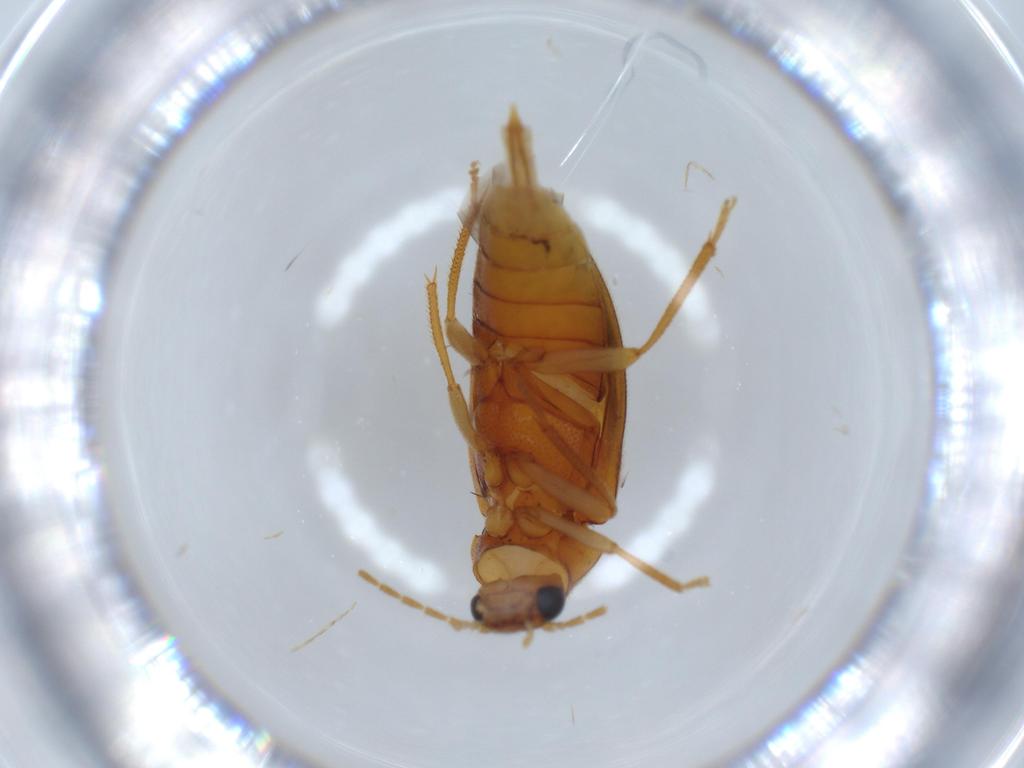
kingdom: Animalia
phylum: Arthropoda
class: Insecta
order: Coleoptera
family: Ptilodactylidae
